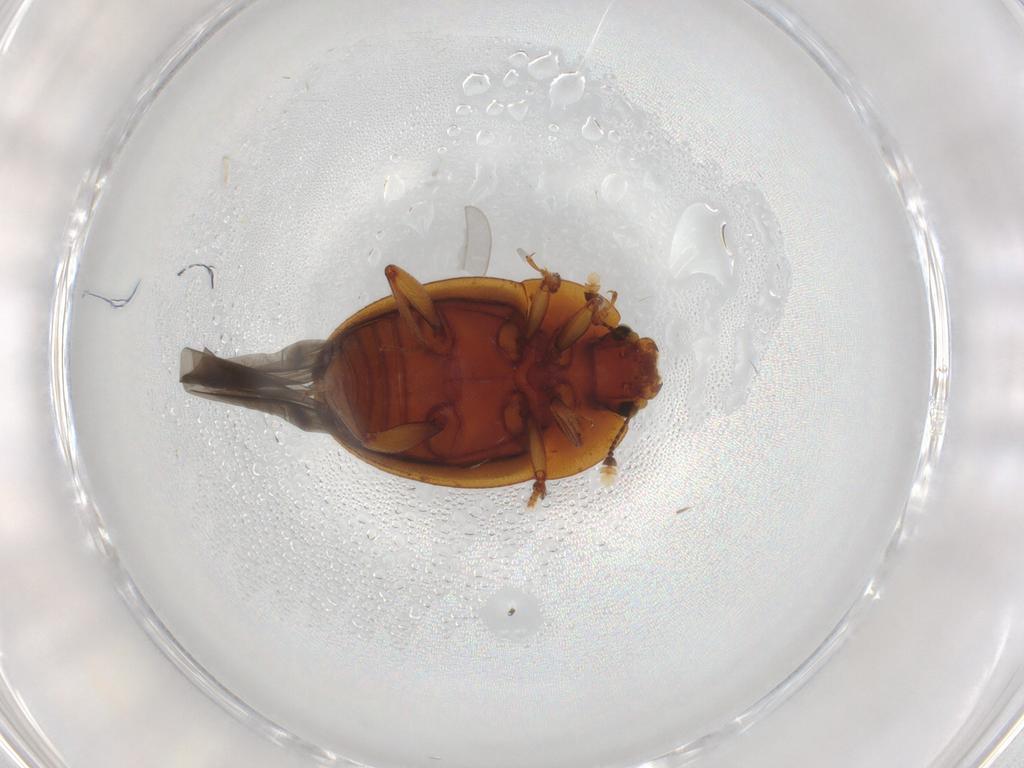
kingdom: Animalia
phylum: Arthropoda
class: Insecta
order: Coleoptera
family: Nitidulidae
